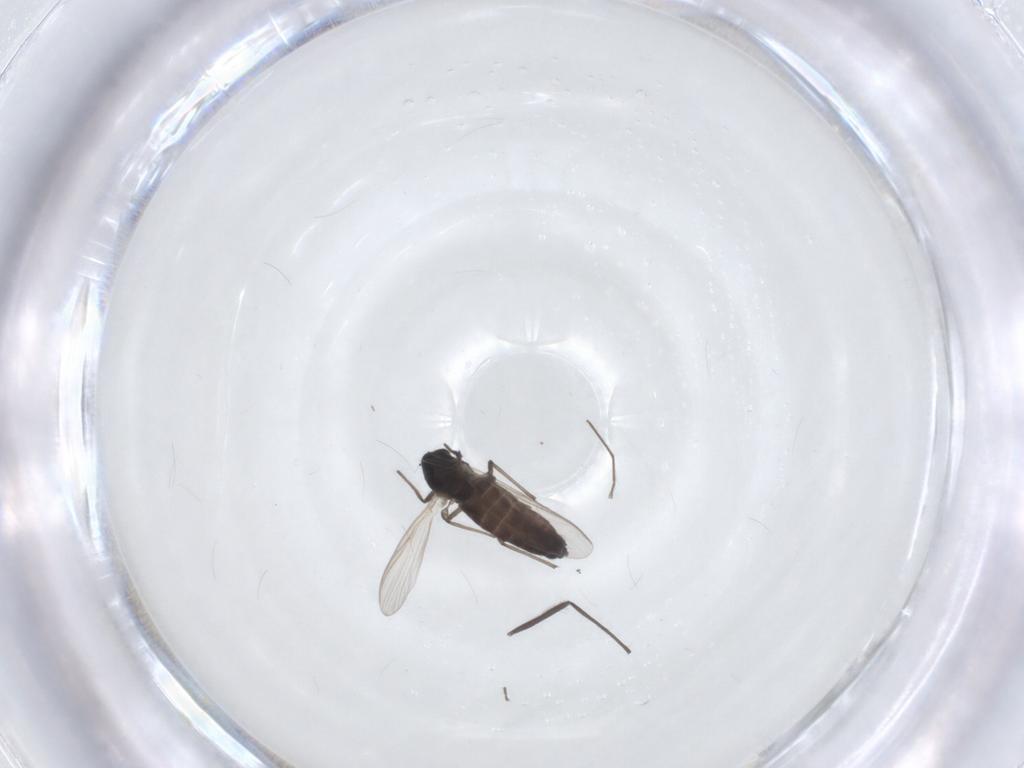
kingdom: Animalia
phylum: Arthropoda
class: Insecta
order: Diptera
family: Chironomidae
